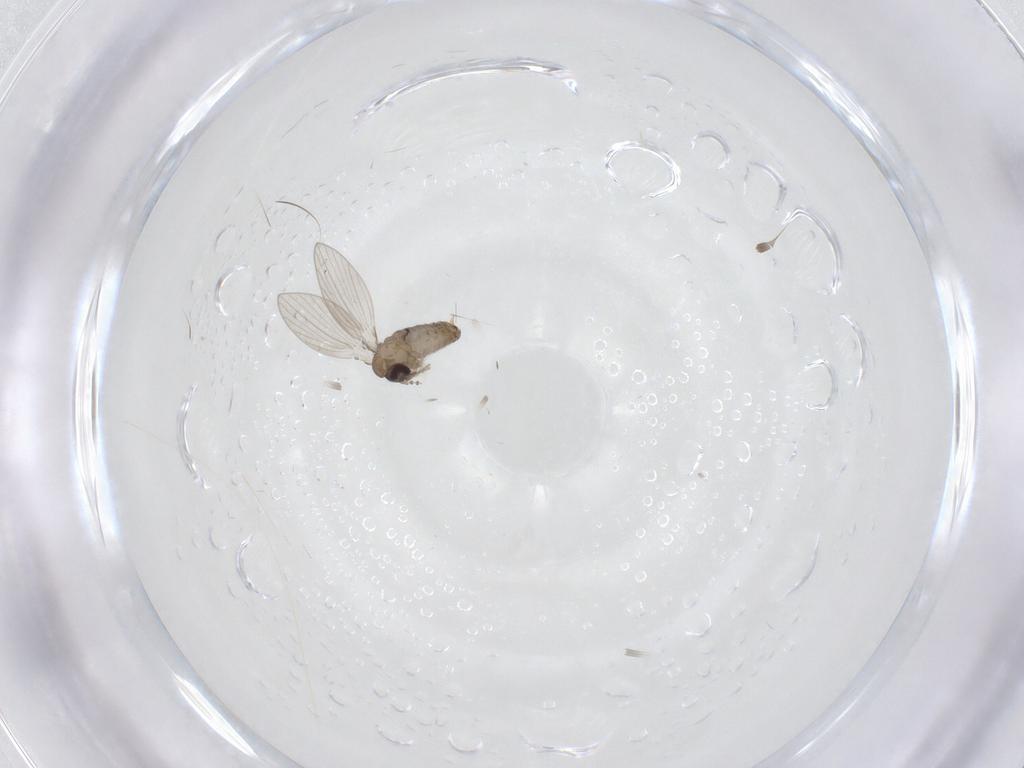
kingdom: Animalia
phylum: Arthropoda
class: Insecta
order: Diptera
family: Psychodidae
